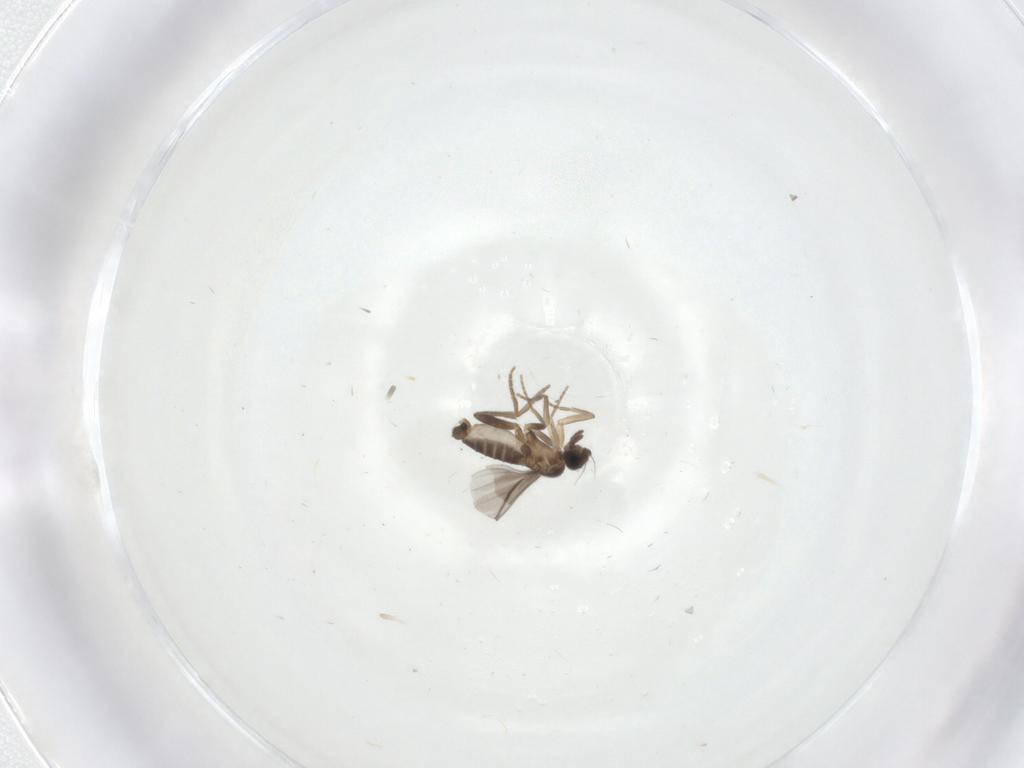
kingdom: Animalia
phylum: Arthropoda
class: Insecta
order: Diptera
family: Phoridae
